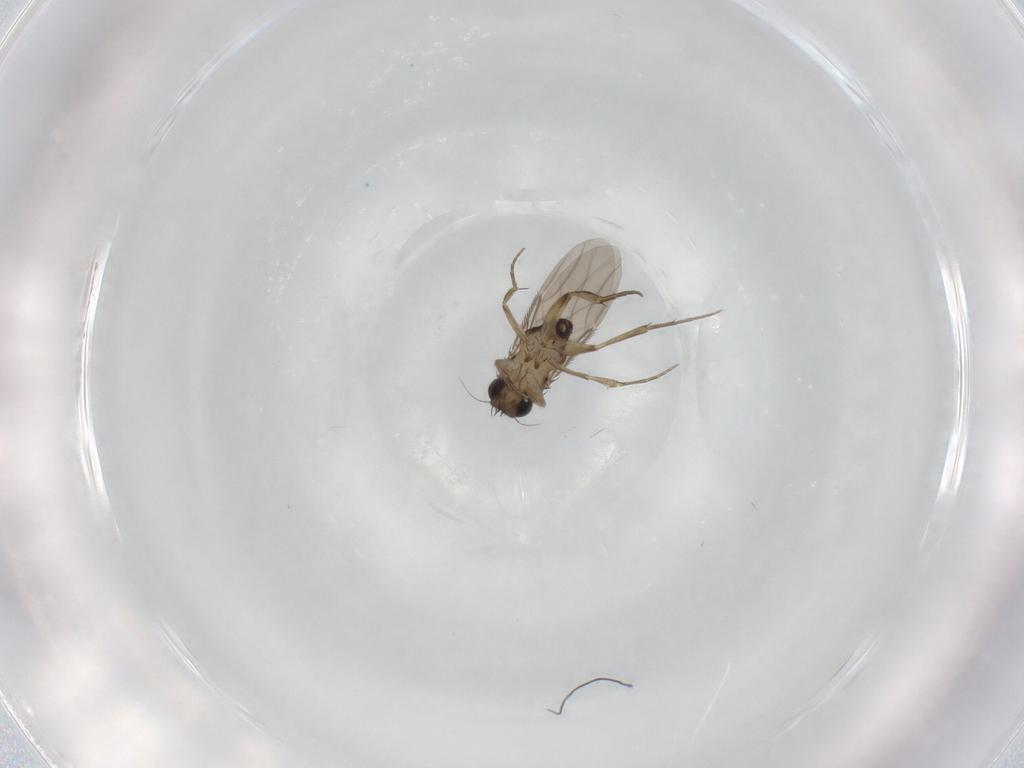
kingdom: Animalia
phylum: Arthropoda
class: Insecta
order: Diptera
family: Phoridae
